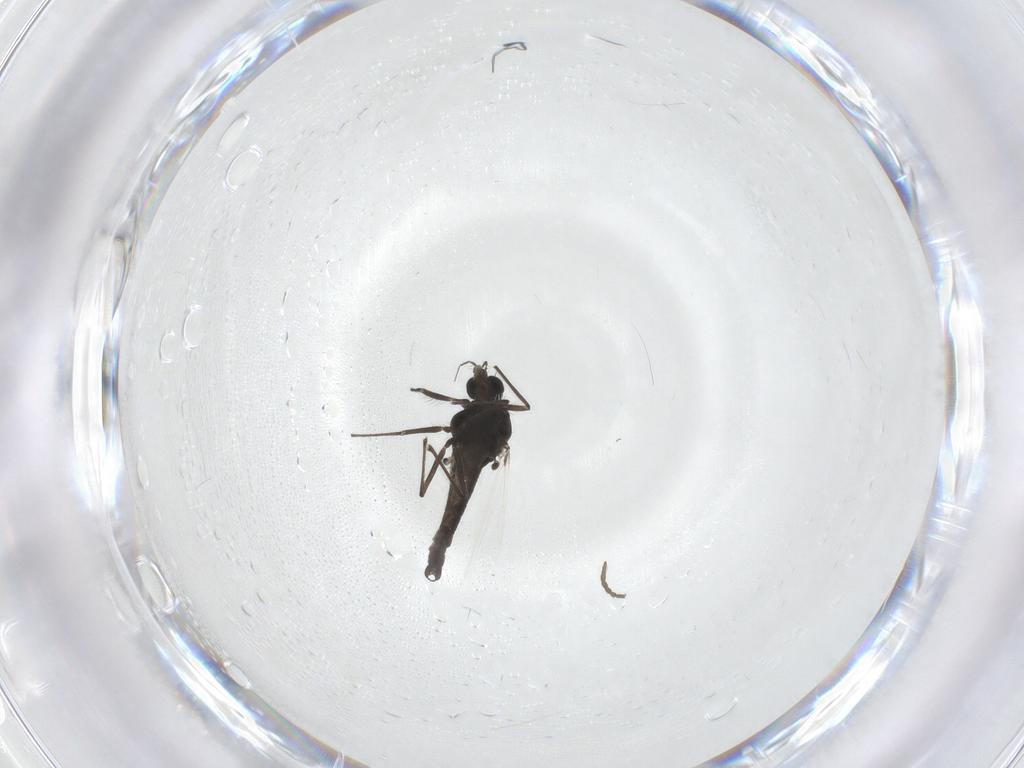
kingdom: Animalia
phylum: Arthropoda
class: Insecta
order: Diptera
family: Chironomidae
